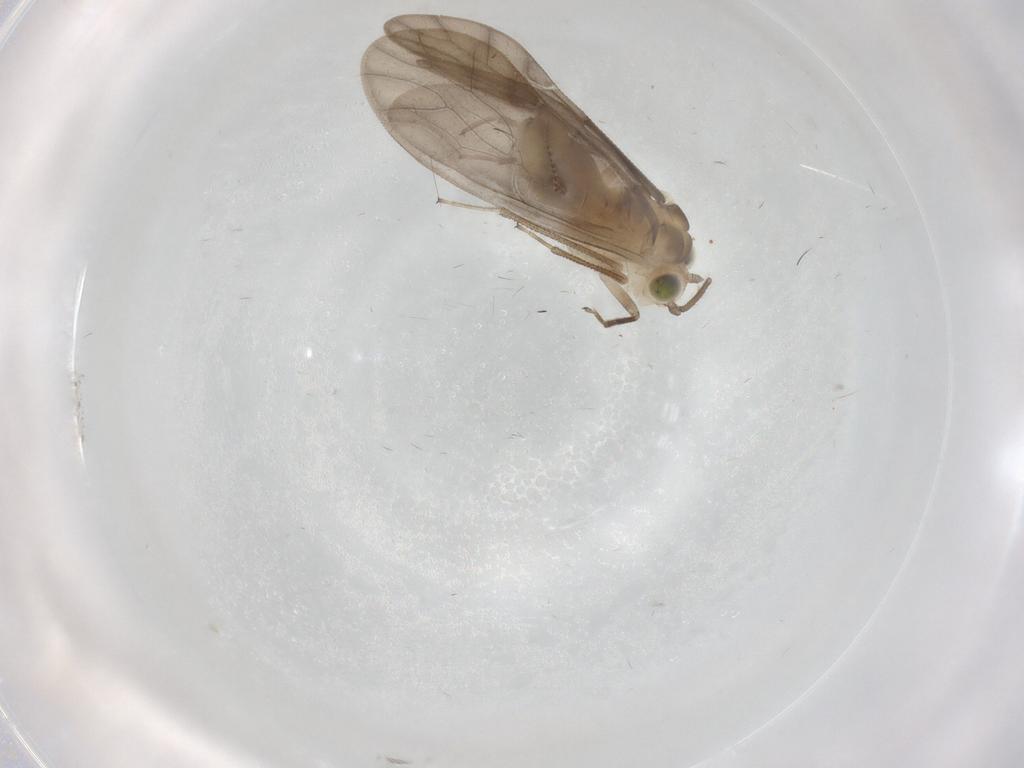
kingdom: Animalia
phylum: Arthropoda
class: Insecta
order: Psocodea
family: Caeciliusidae
